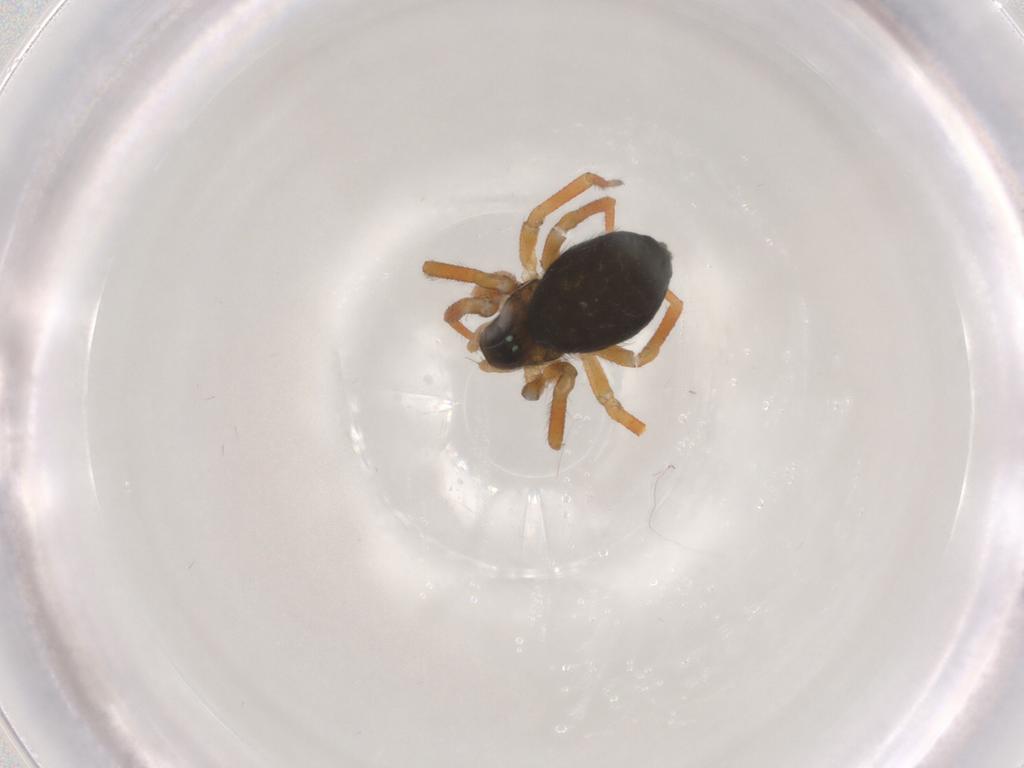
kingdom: Animalia
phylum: Arthropoda
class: Arachnida
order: Araneae
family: Linyphiidae
